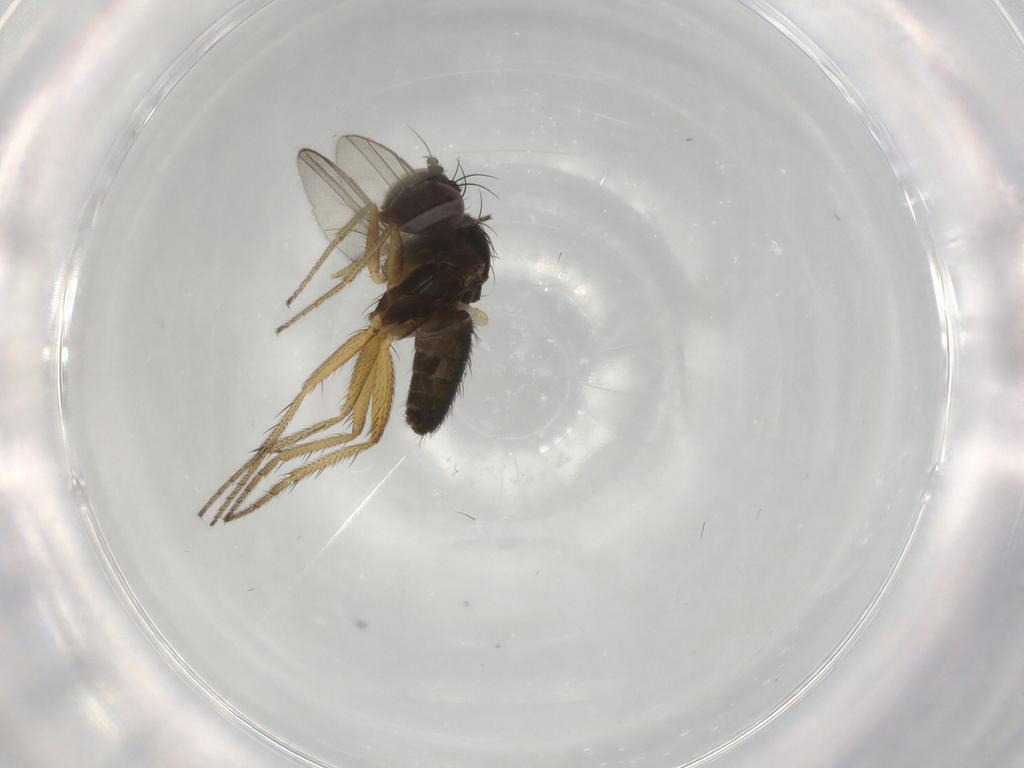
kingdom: Animalia
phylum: Arthropoda
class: Insecta
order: Diptera
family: Dolichopodidae
